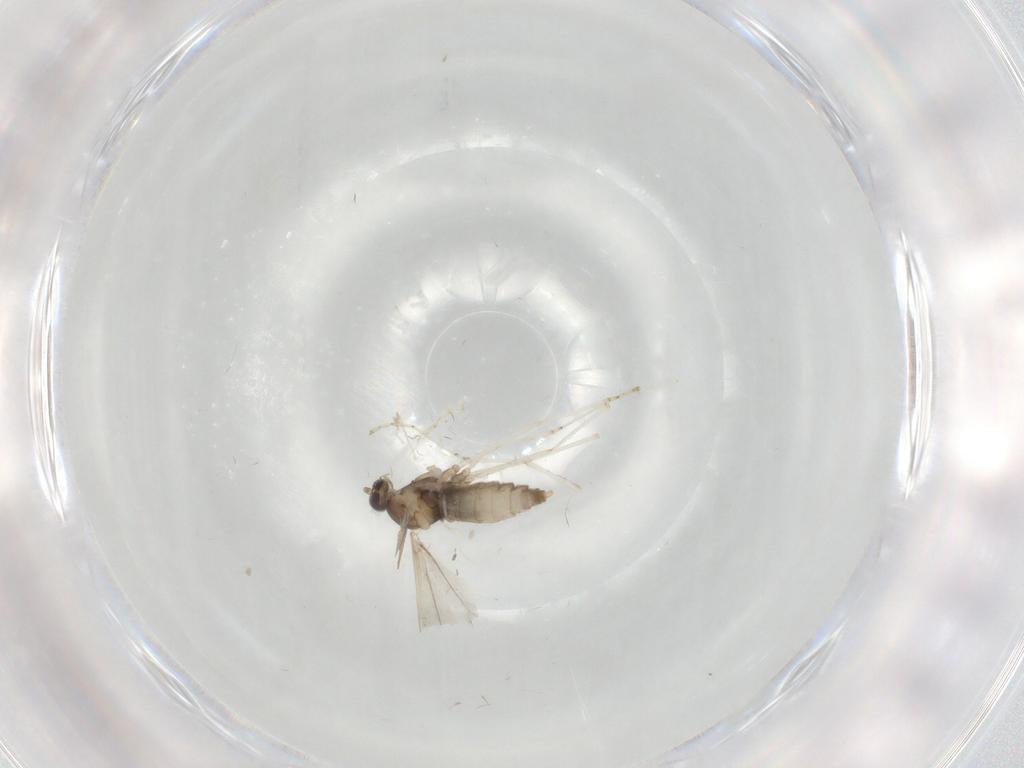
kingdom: Animalia
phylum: Arthropoda
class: Insecta
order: Diptera
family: Cecidomyiidae
